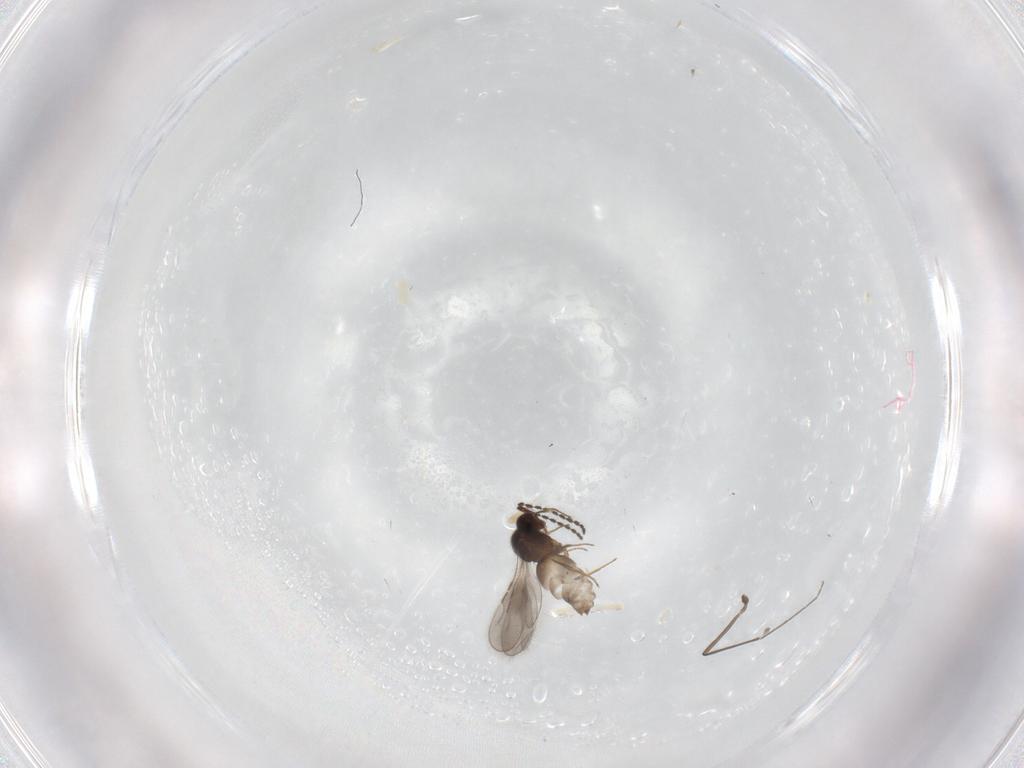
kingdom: Animalia
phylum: Arthropoda
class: Insecta
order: Hymenoptera
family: Ceraphronidae
